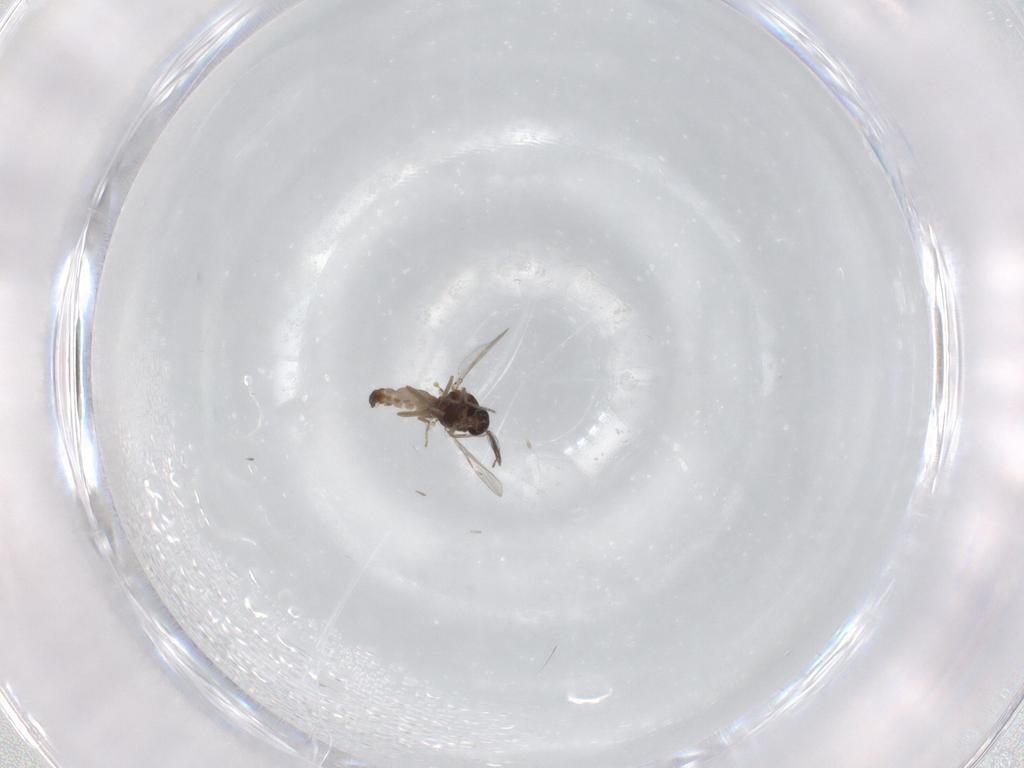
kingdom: Animalia
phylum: Arthropoda
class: Insecta
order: Diptera
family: Ceratopogonidae
